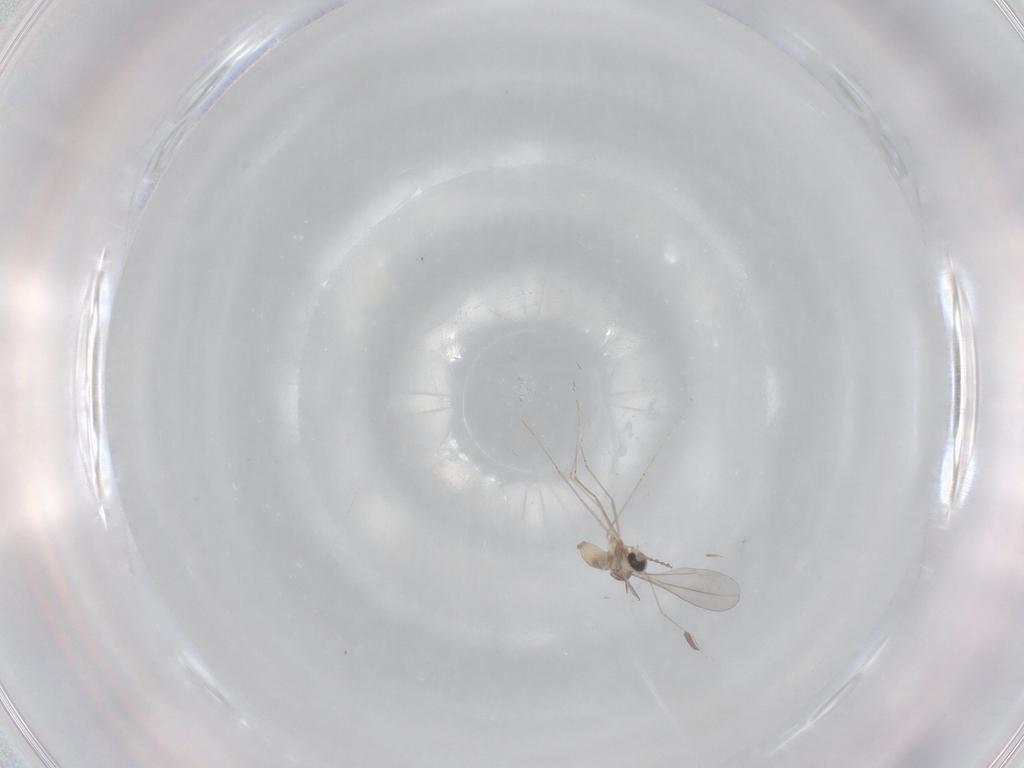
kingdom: Animalia
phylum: Arthropoda
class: Insecta
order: Diptera
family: Cecidomyiidae
